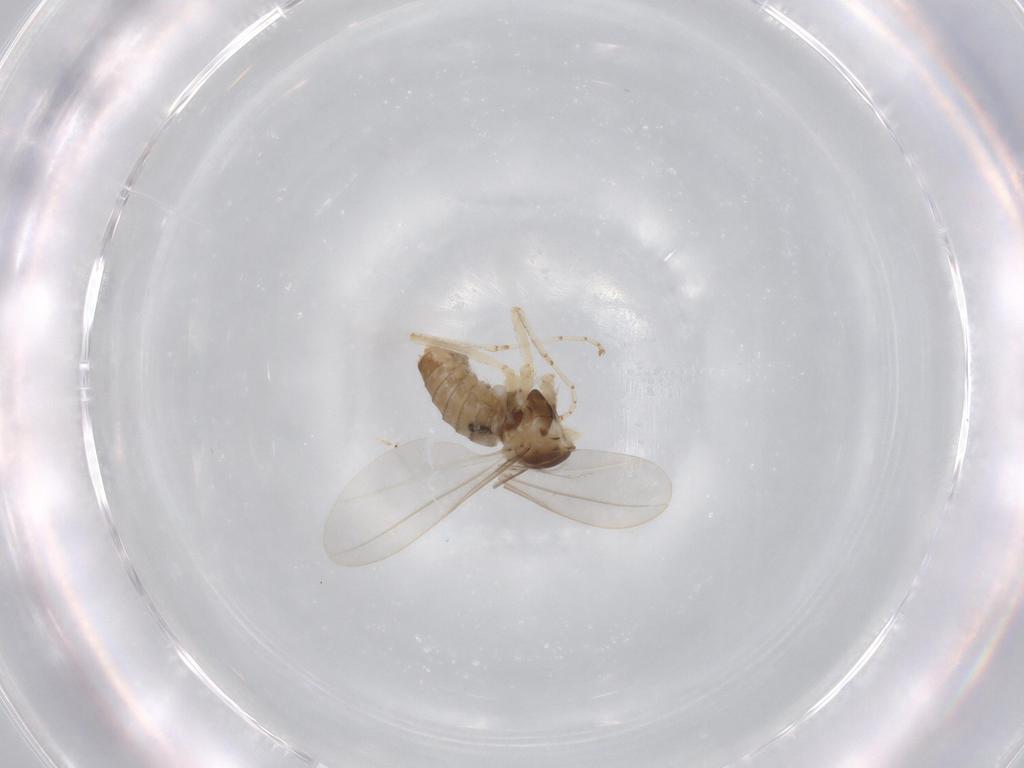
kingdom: Animalia
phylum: Arthropoda
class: Insecta
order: Diptera
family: Cecidomyiidae
